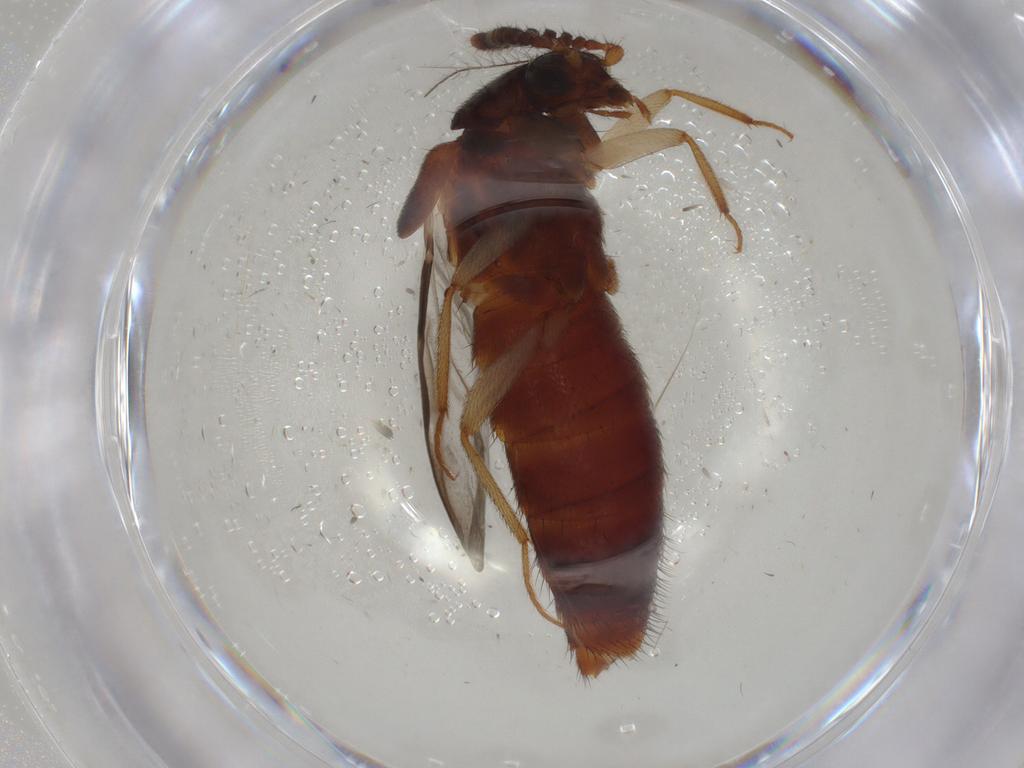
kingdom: Animalia
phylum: Arthropoda
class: Insecta
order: Coleoptera
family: Staphylinidae
